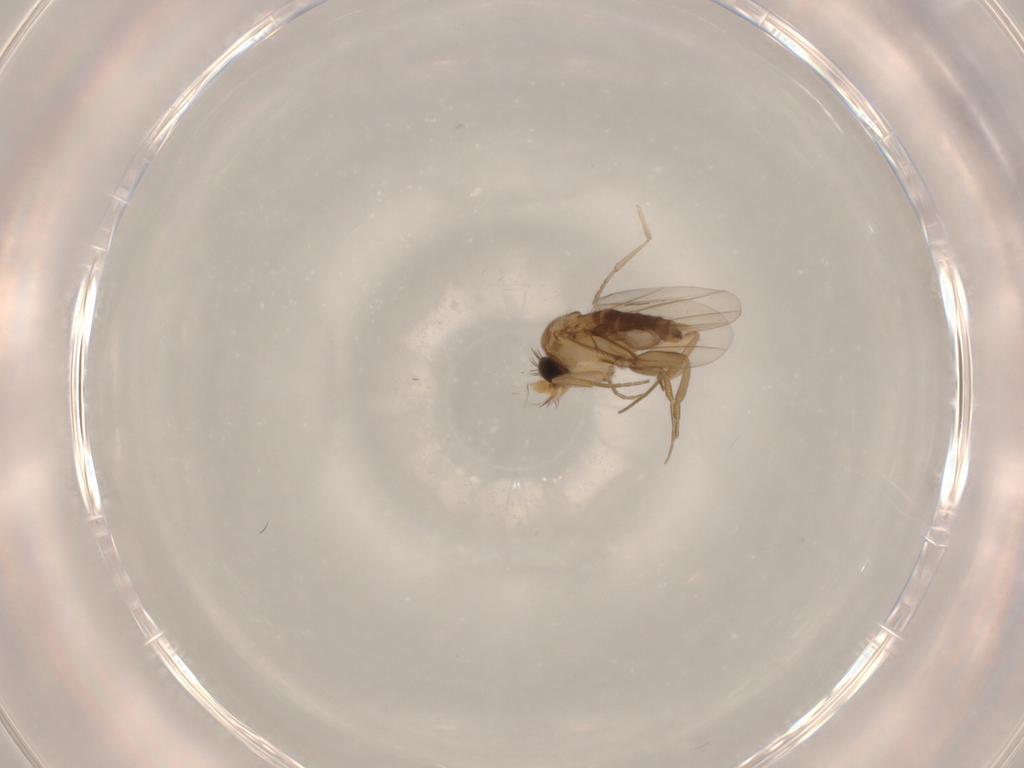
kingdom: Animalia
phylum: Arthropoda
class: Insecta
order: Diptera
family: Phoridae
